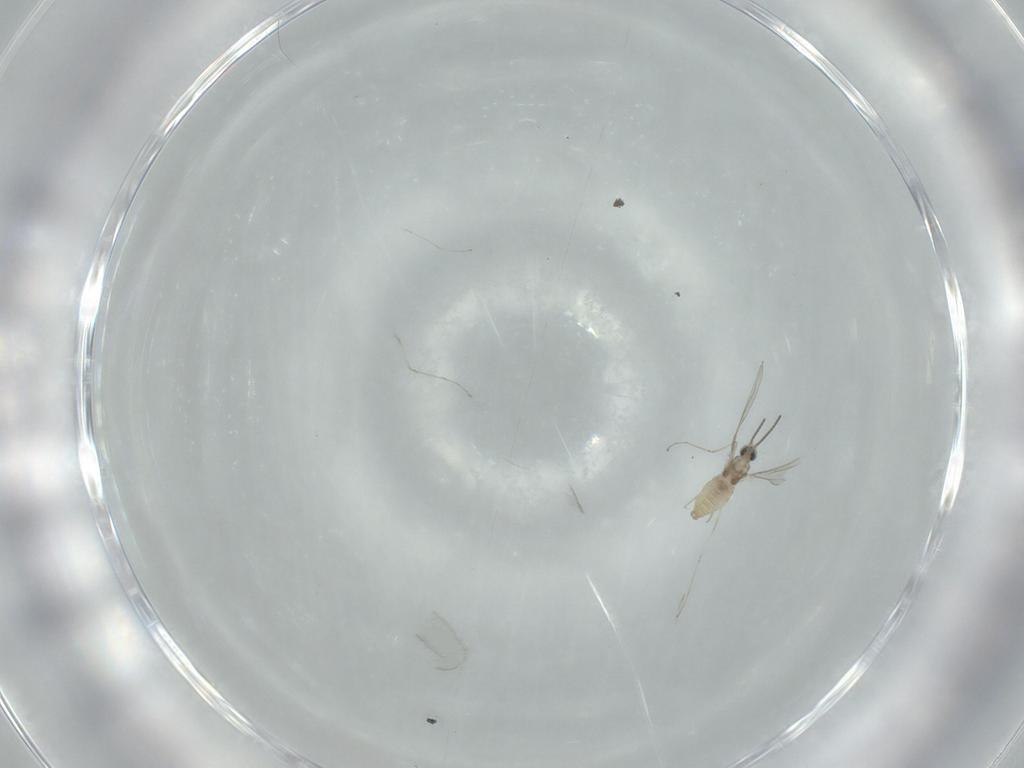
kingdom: Animalia
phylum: Arthropoda
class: Insecta
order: Diptera
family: Cecidomyiidae
